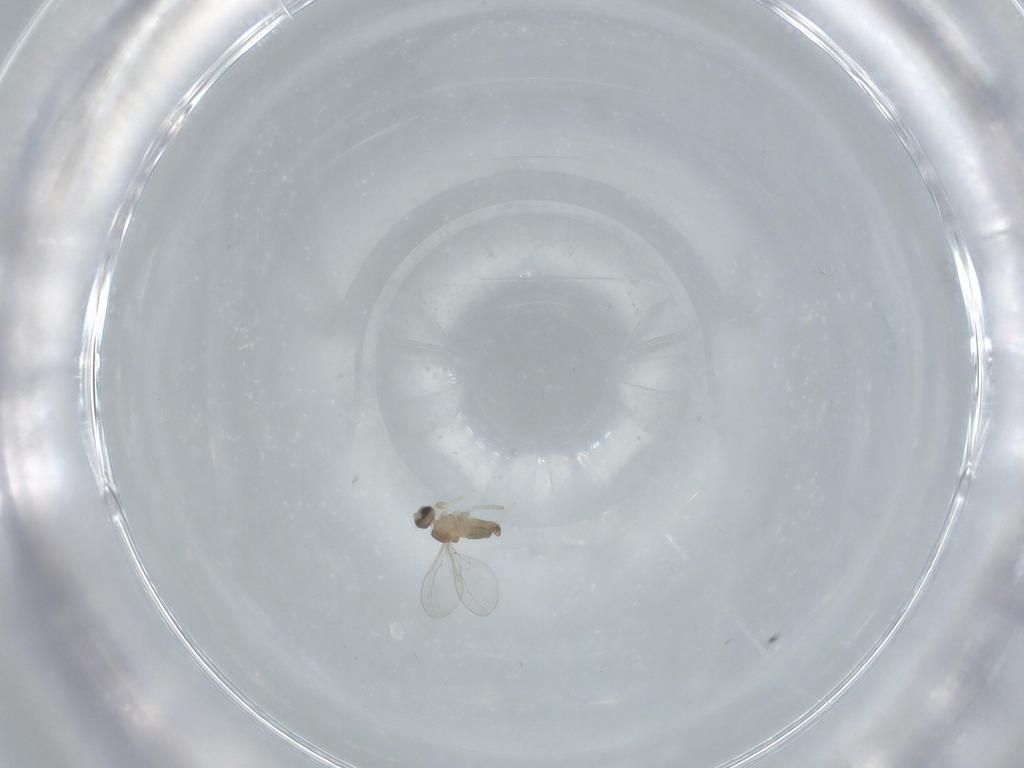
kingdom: Animalia
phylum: Arthropoda
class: Insecta
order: Diptera
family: Cecidomyiidae
